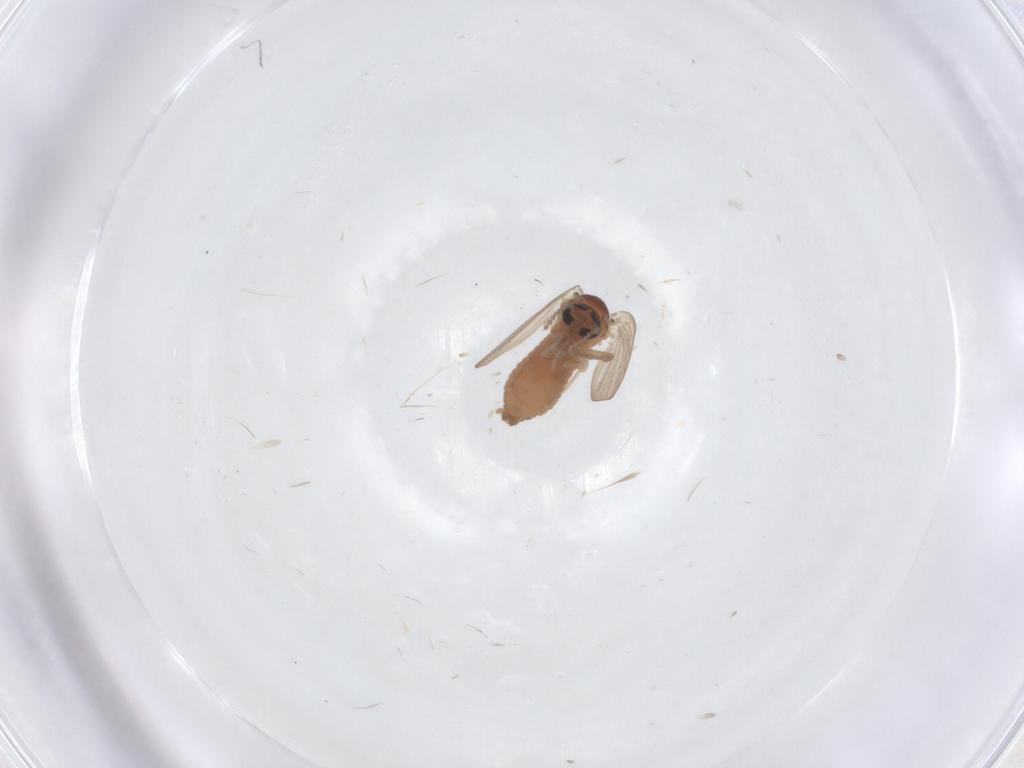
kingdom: Animalia
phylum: Arthropoda
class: Insecta
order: Diptera
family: Psychodidae
